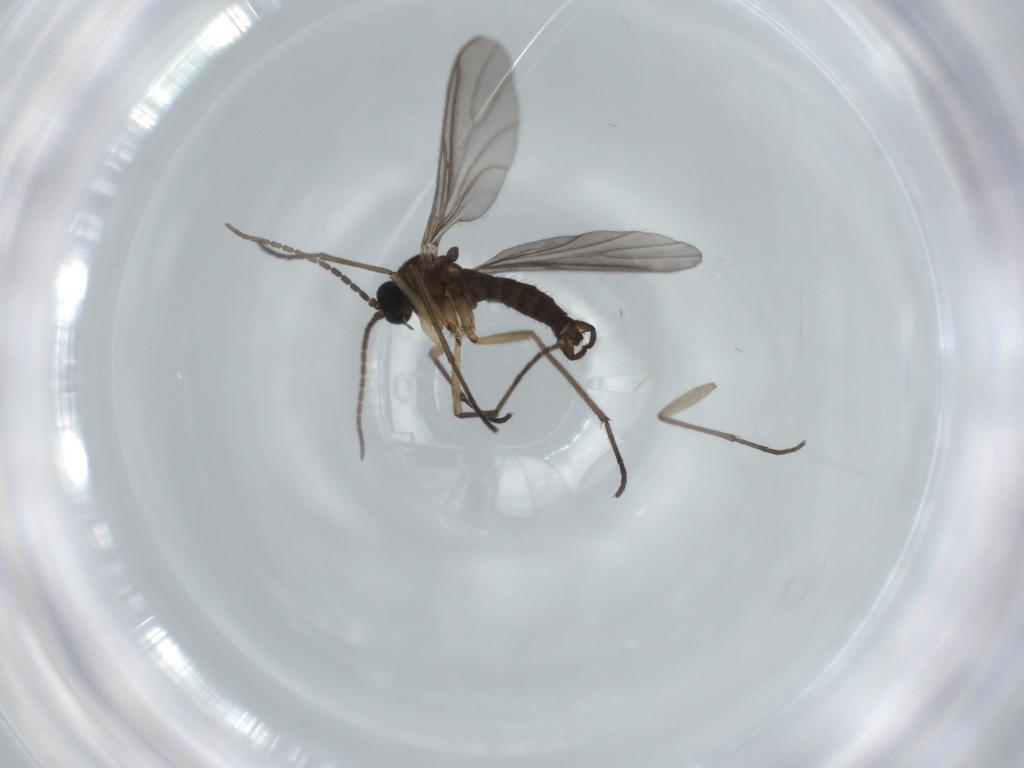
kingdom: Animalia
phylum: Arthropoda
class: Insecta
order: Diptera
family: Sciaridae
